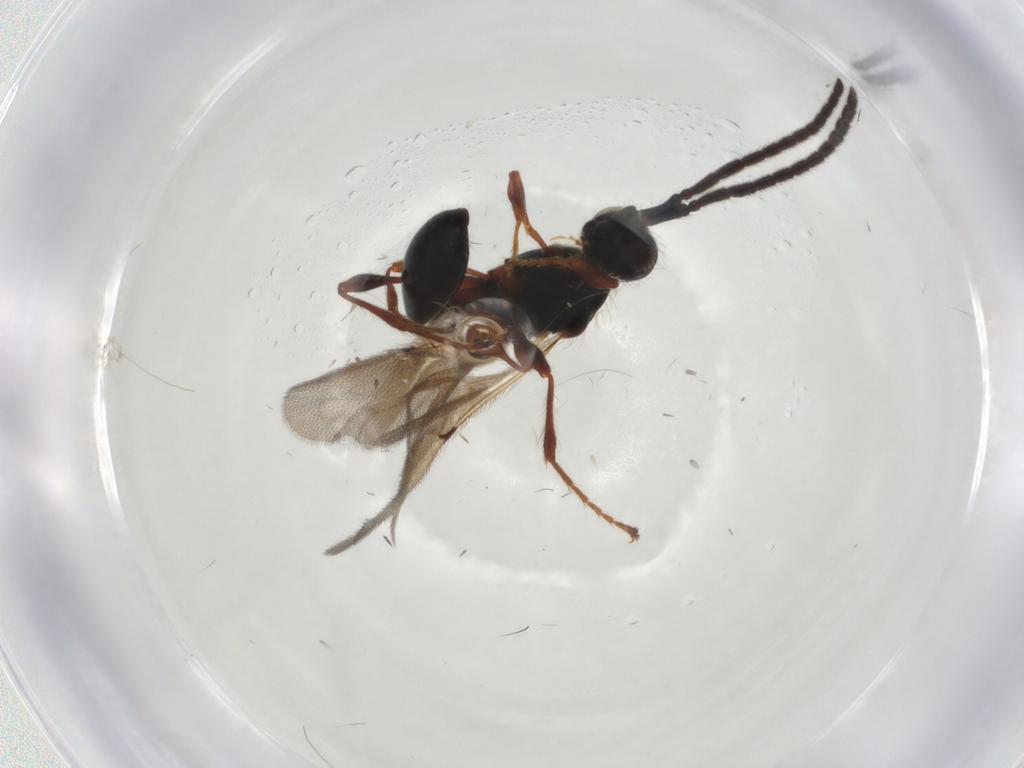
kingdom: Animalia
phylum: Arthropoda
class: Insecta
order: Hymenoptera
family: Diapriidae
